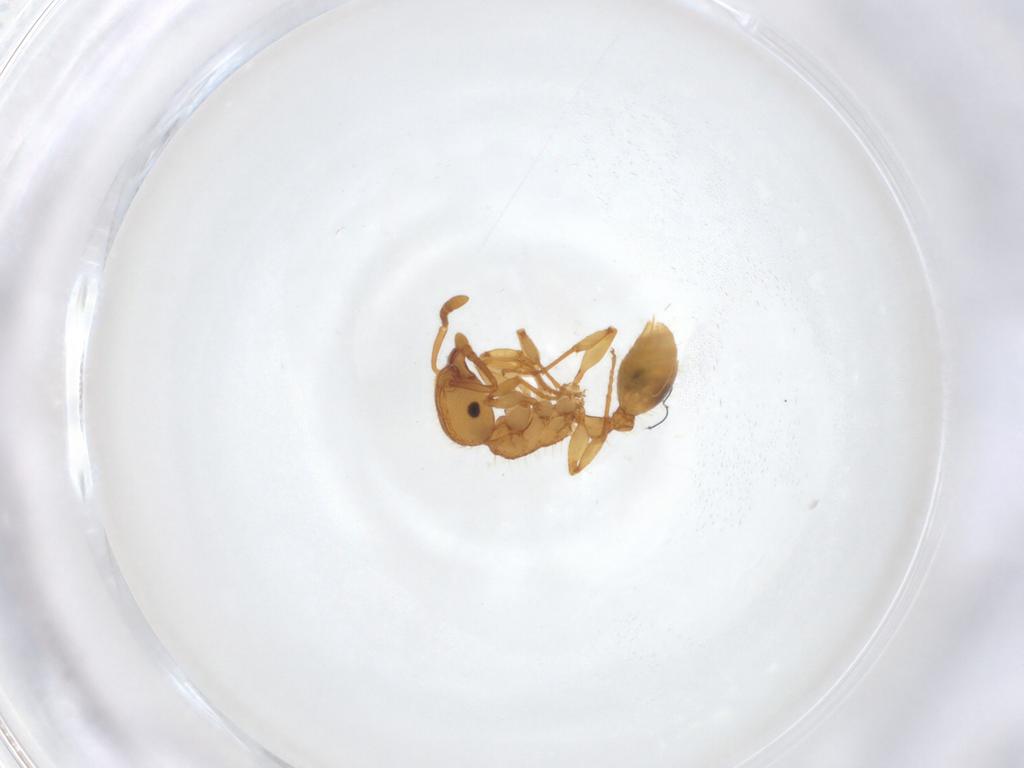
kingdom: Animalia
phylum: Arthropoda
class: Insecta
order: Hymenoptera
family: Formicidae
